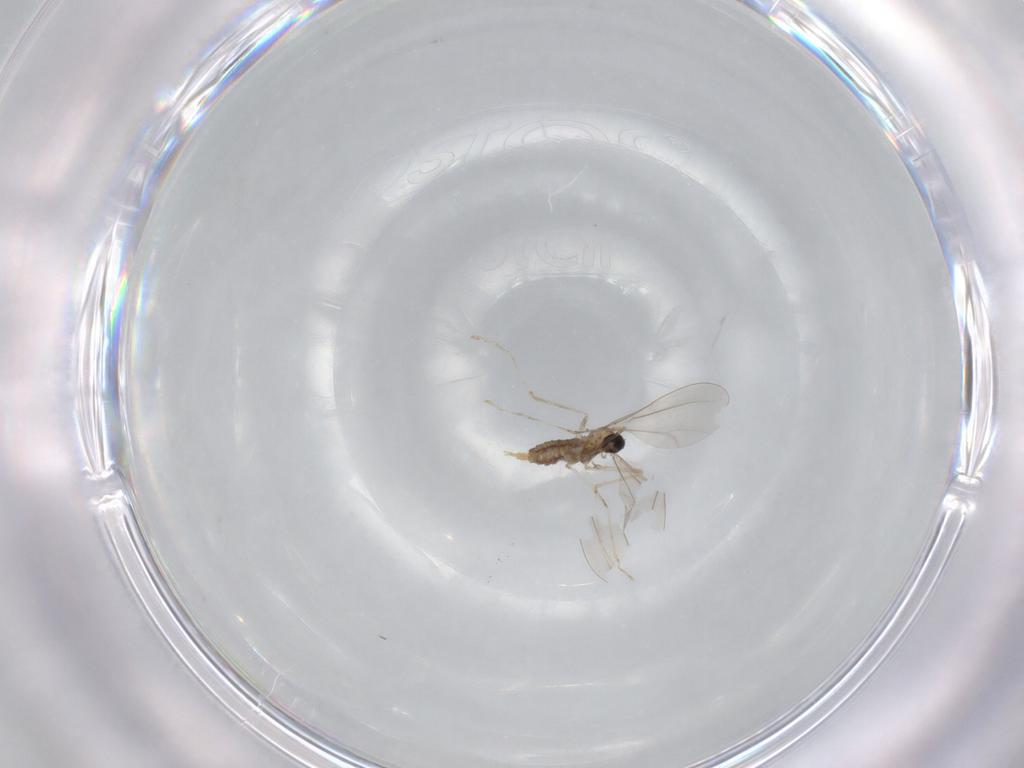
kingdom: Animalia
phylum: Arthropoda
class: Insecta
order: Diptera
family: Cecidomyiidae
